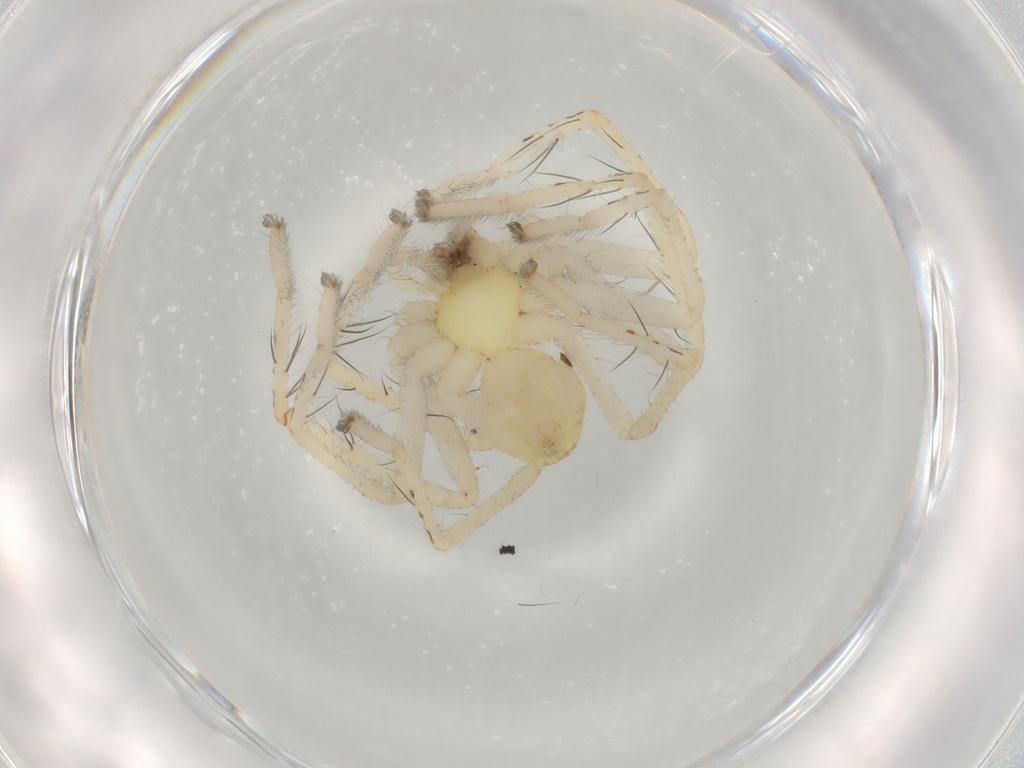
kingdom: Animalia
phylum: Arthropoda
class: Arachnida
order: Araneae
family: Sparassidae
